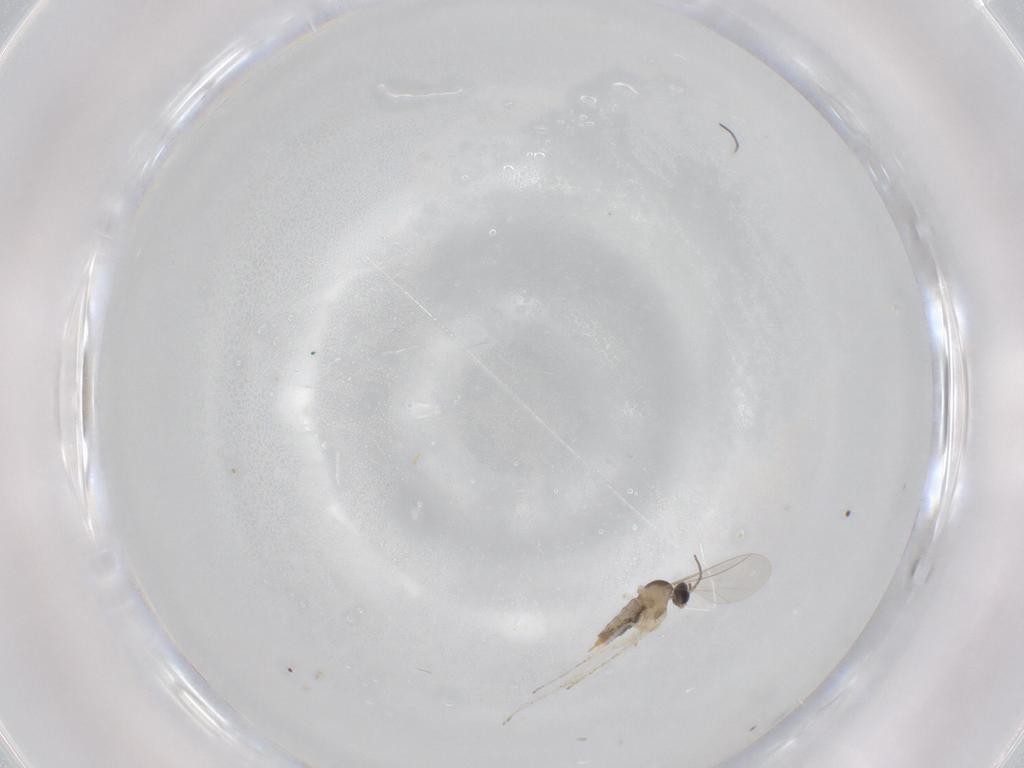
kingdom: Animalia
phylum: Arthropoda
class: Insecta
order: Diptera
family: Cecidomyiidae
